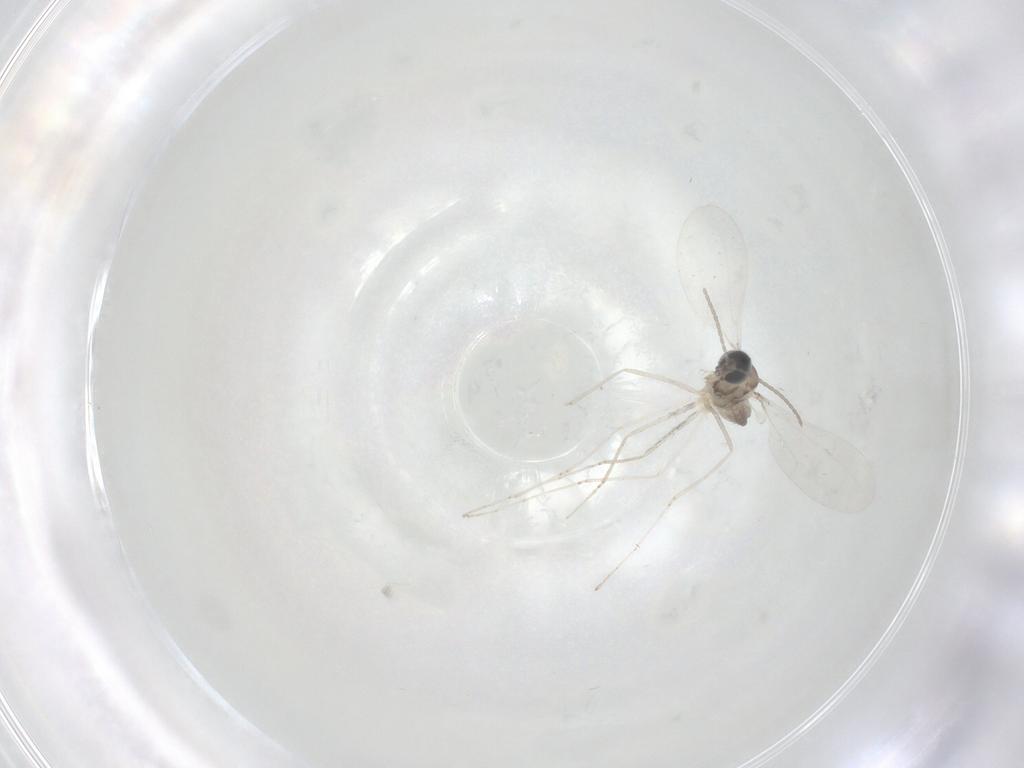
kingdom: Animalia
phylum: Arthropoda
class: Insecta
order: Diptera
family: Cecidomyiidae
